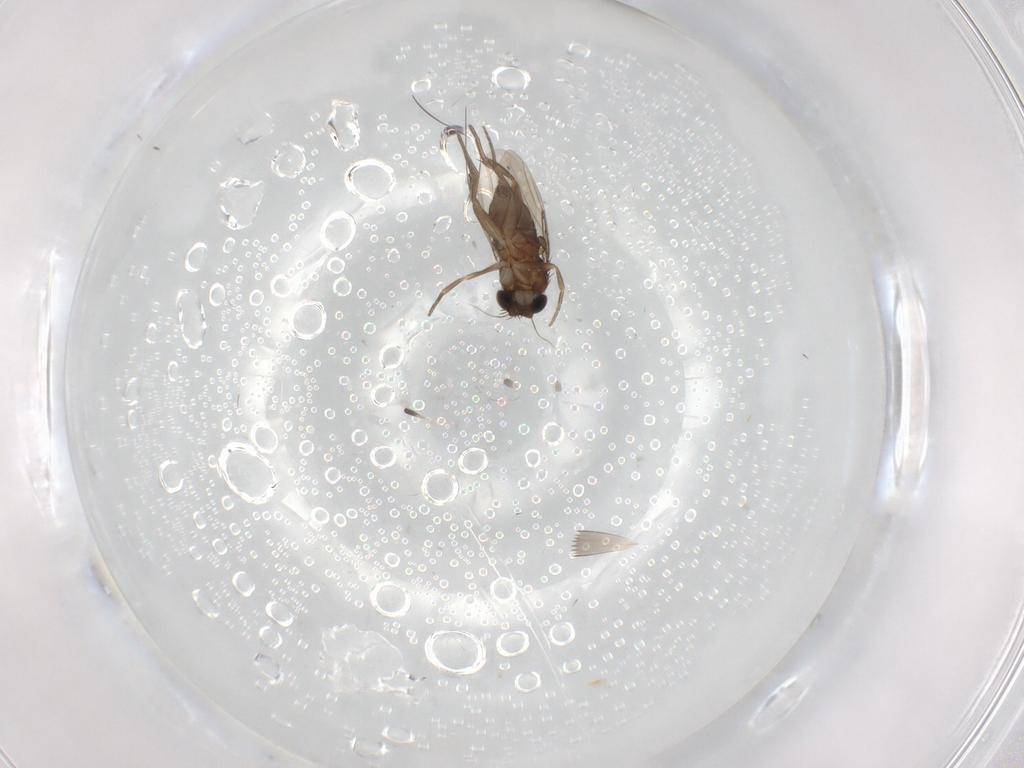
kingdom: Animalia
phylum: Arthropoda
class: Insecta
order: Diptera
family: Phoridae
